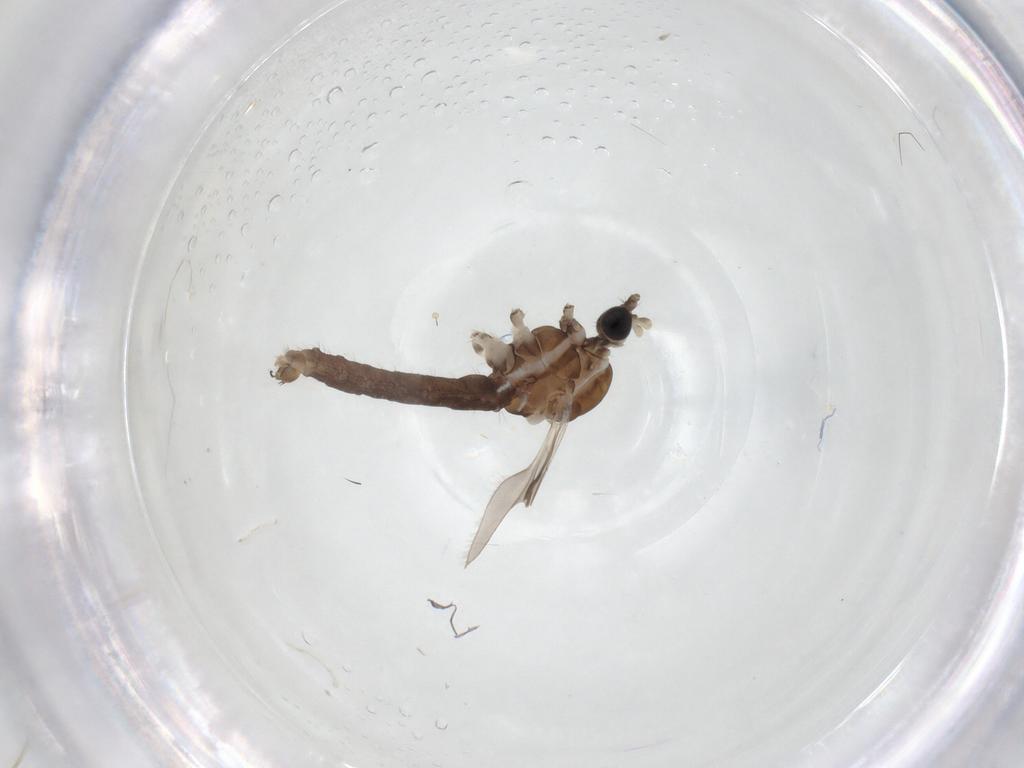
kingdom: Animalia
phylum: Arthropoda
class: Insecta
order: Diptera
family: Limoniidae
